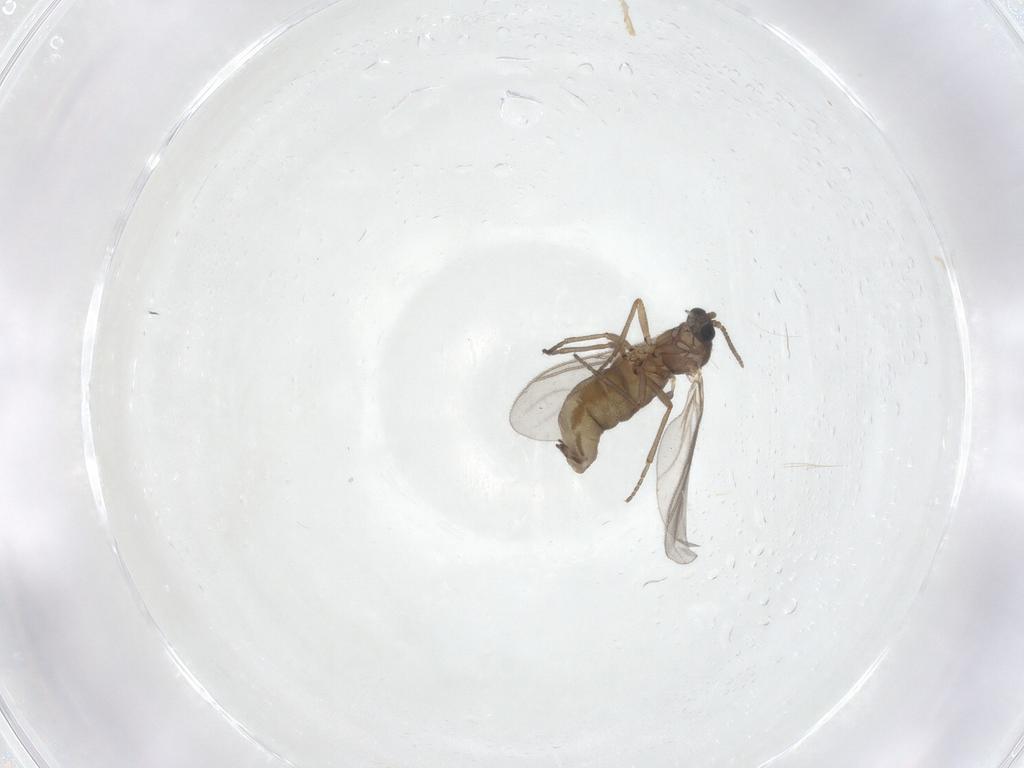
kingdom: Animalia
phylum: Arthropoda
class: Insecta
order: Diptera
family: Sciaridae
